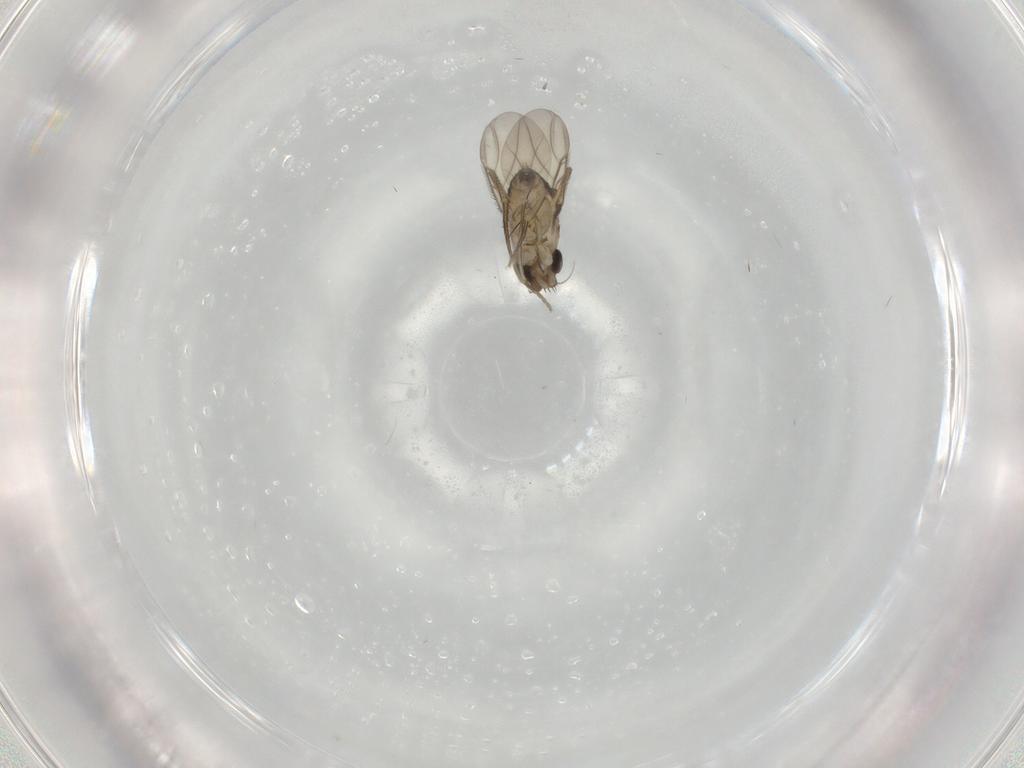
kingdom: Animalia
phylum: Arthropoda
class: Insecta
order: Diptera
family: Phoridae
